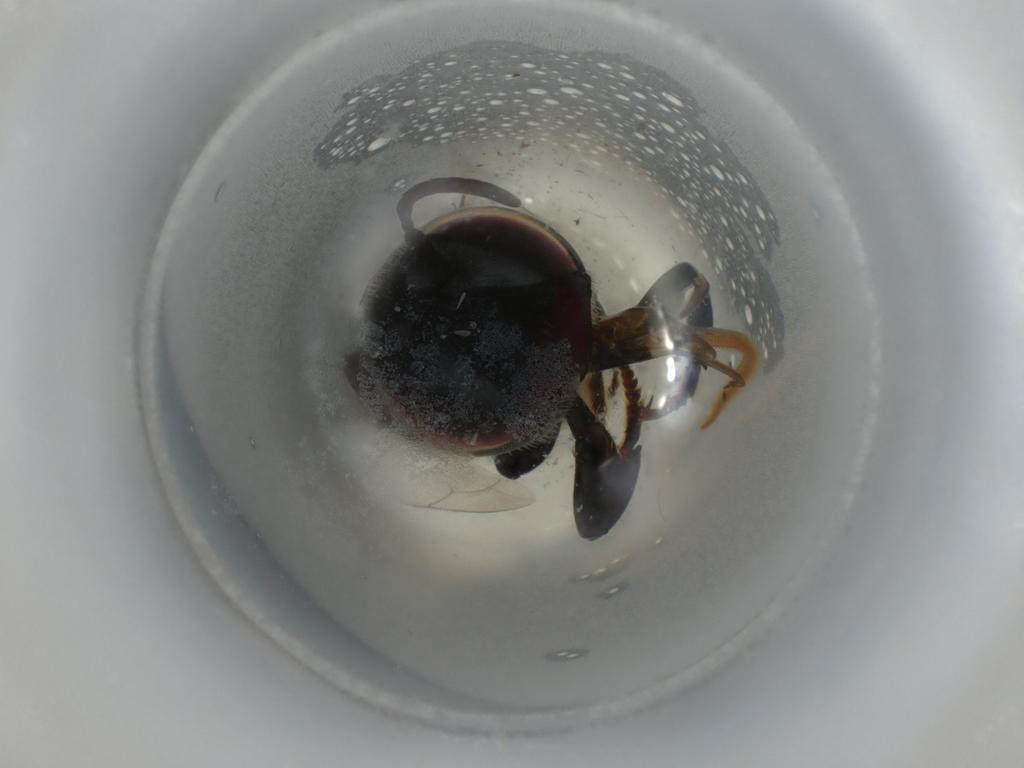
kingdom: Animalia
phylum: Arthropoda
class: Insecta
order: Hymenoptera
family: Megachilidae
